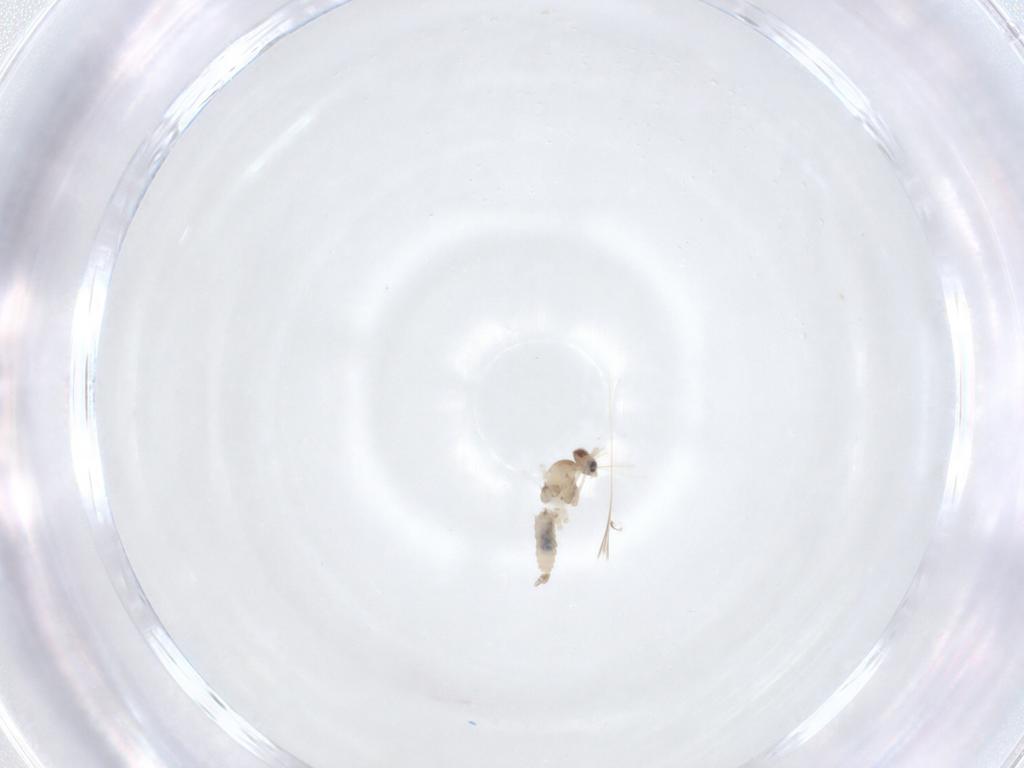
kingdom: Animalia
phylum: Arthropoda
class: Insecta
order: Diptera
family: Cecidomyiidae
